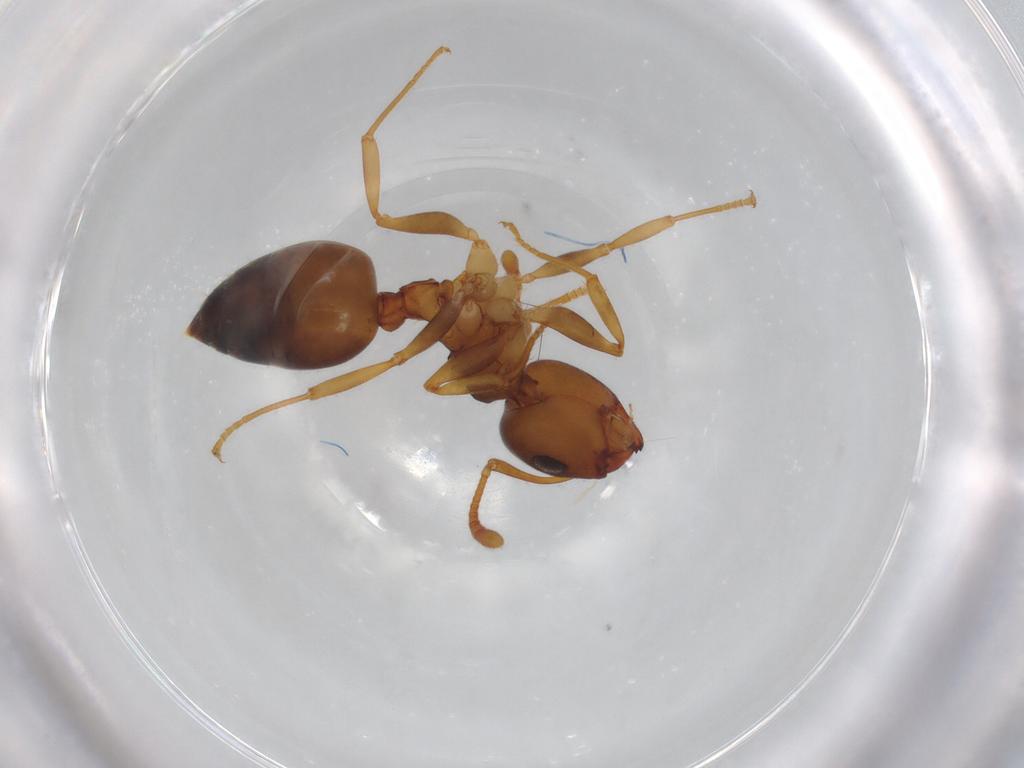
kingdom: Animalia
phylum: Arthropoda
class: Insecta
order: Hymenoptera
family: Formicidae
